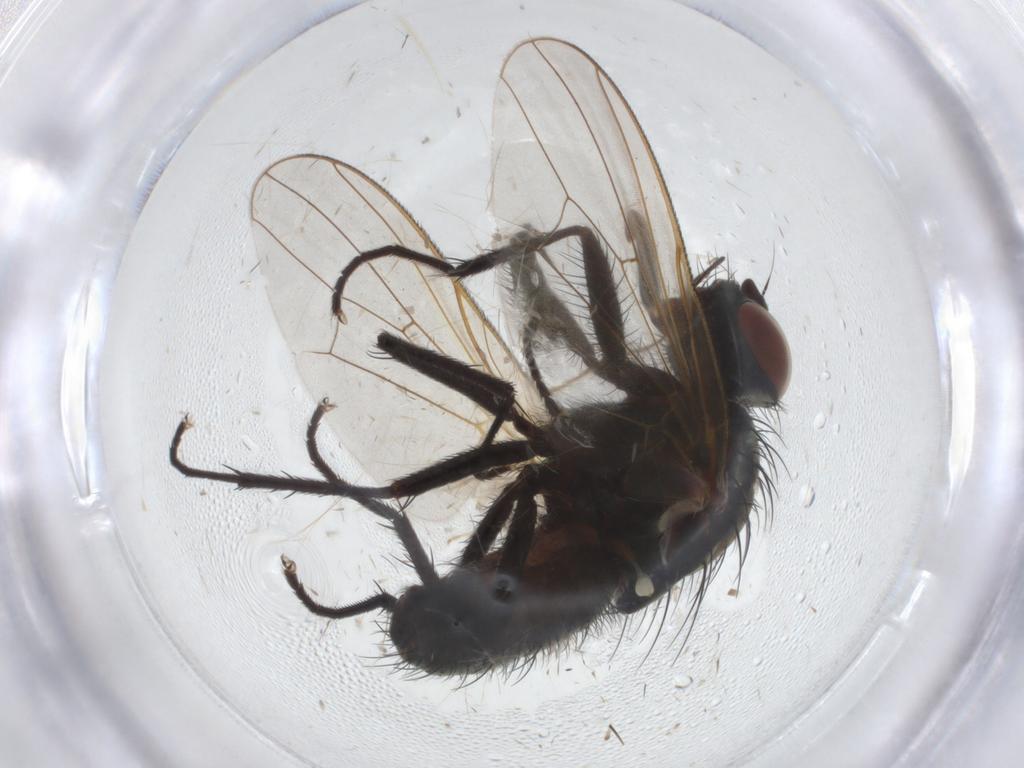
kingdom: Animalia
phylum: Arthropoda
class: Insecta
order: Diptera
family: Cecidomyiidae
